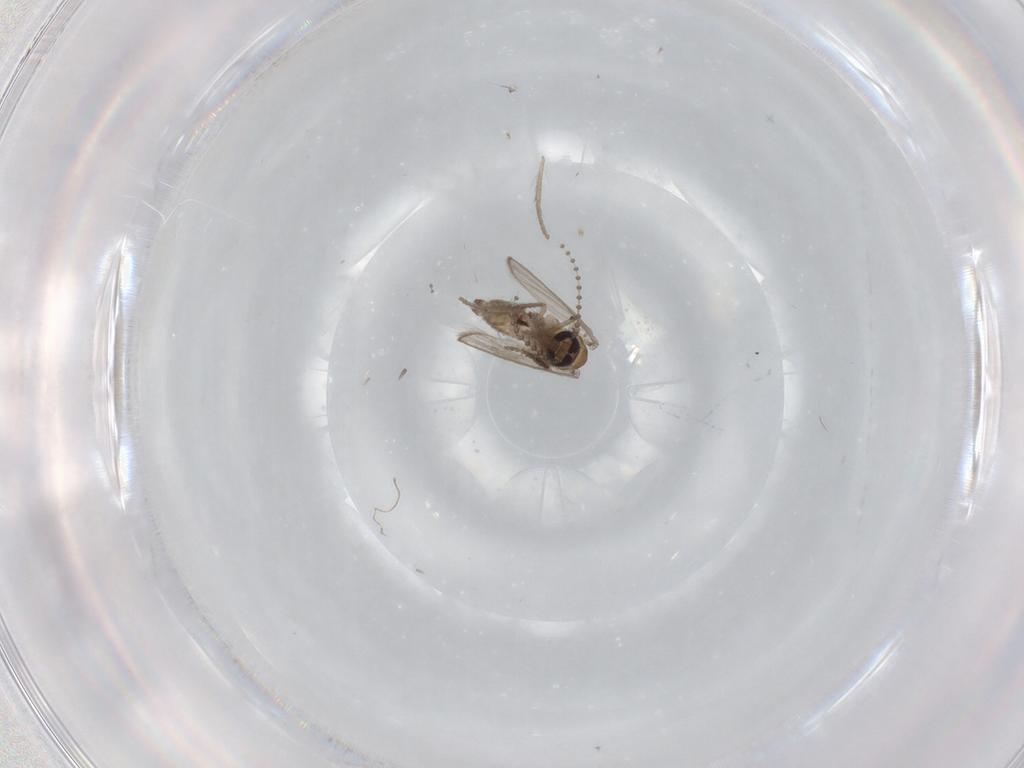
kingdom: Animalia
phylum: Arthropoda
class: Insecta
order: Diptera
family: Psychodidae
